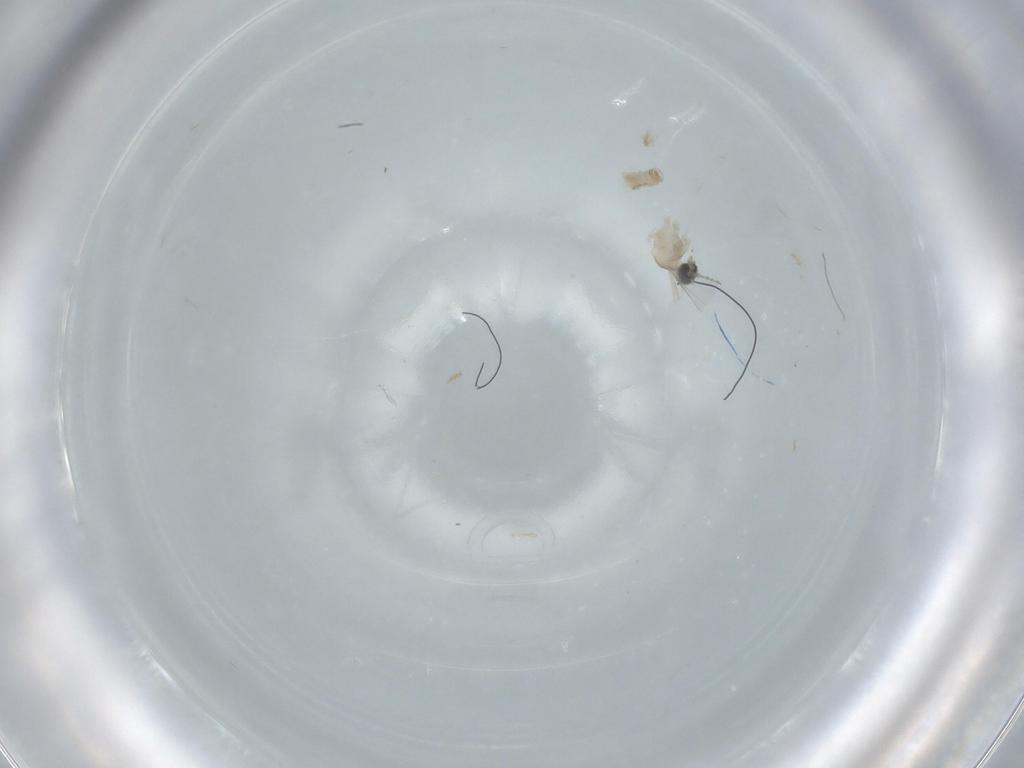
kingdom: Animalia
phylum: Arthropoda
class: Insecta
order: Diptera
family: Cecidomyiidae
